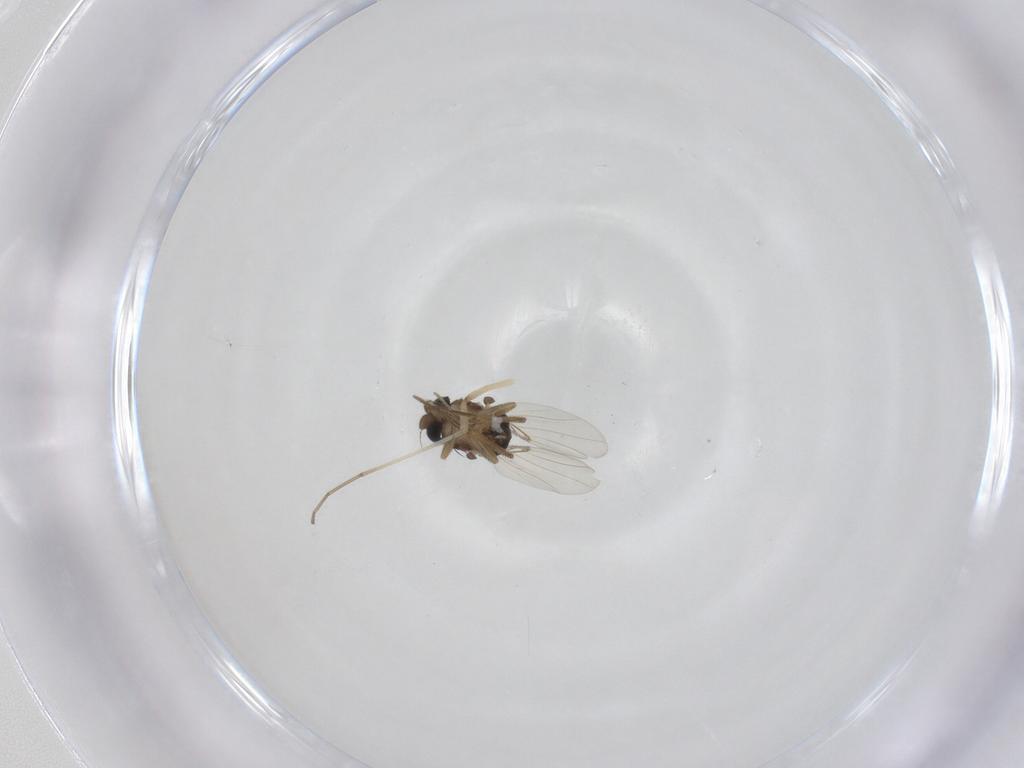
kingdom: Animalia
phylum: Arthropoda
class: Insecta
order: Diptera
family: Phoridae
